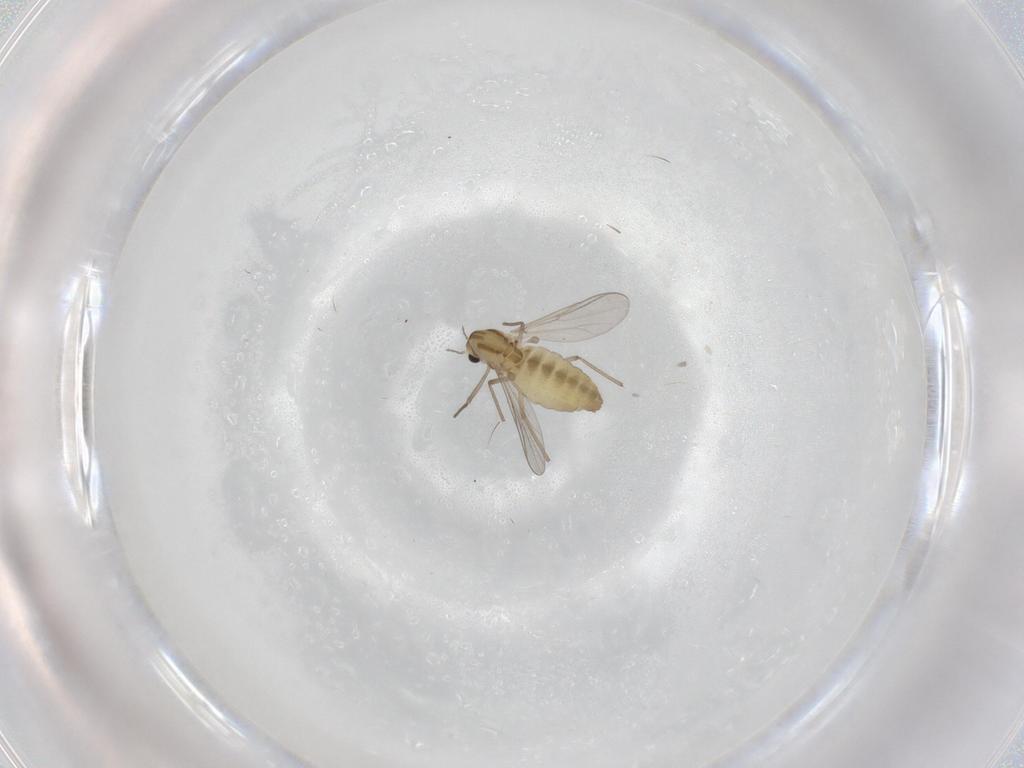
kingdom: Animalia
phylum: Arthropoda
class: Insecta
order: Diptera
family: Chironomidae
